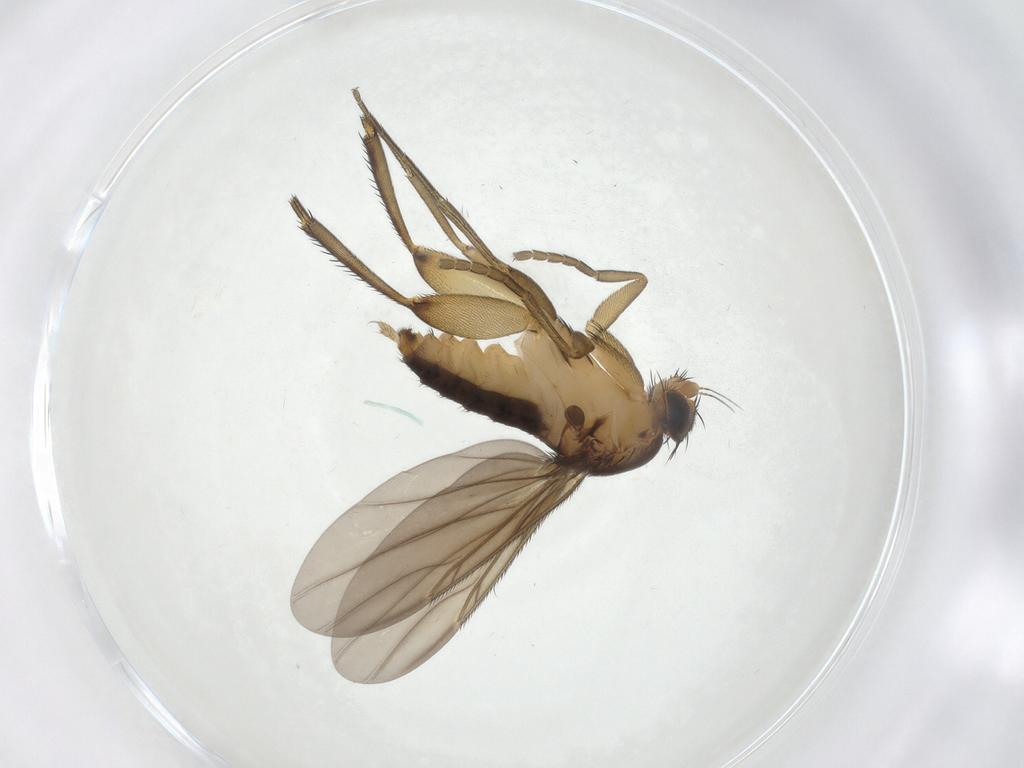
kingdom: Animalia
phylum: Arthropoda
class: Insecta
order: Diptera
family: Phoridae
